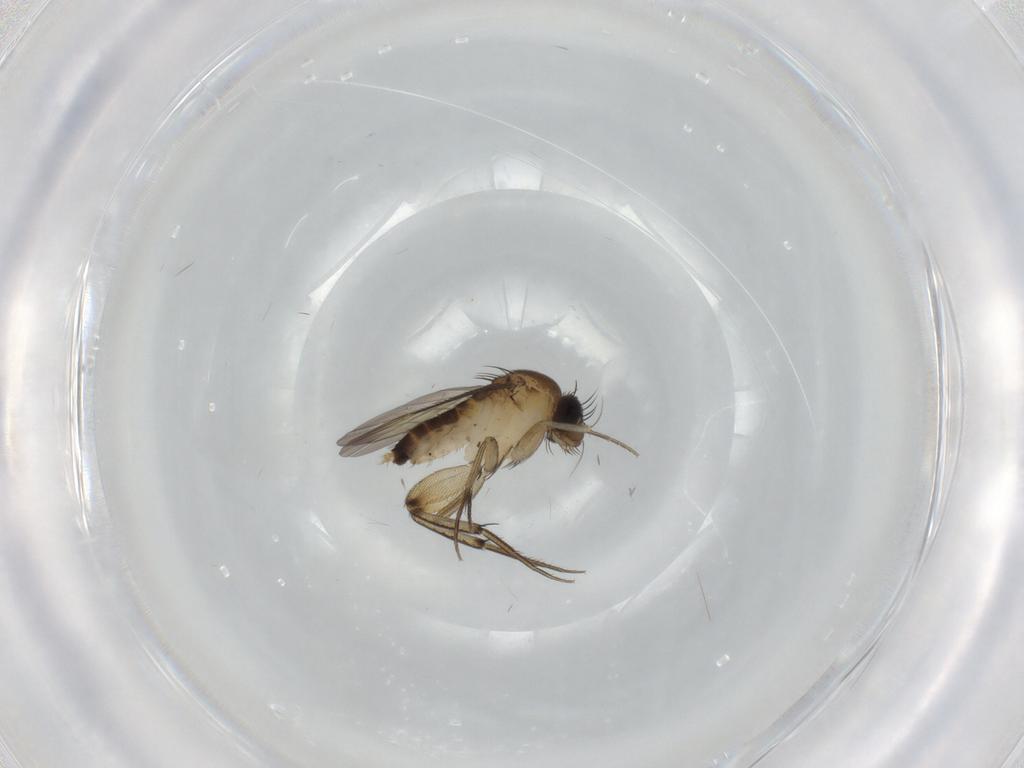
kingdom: Animalia
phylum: Arthropoda
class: Insecta
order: Diptera
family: Phoridae
